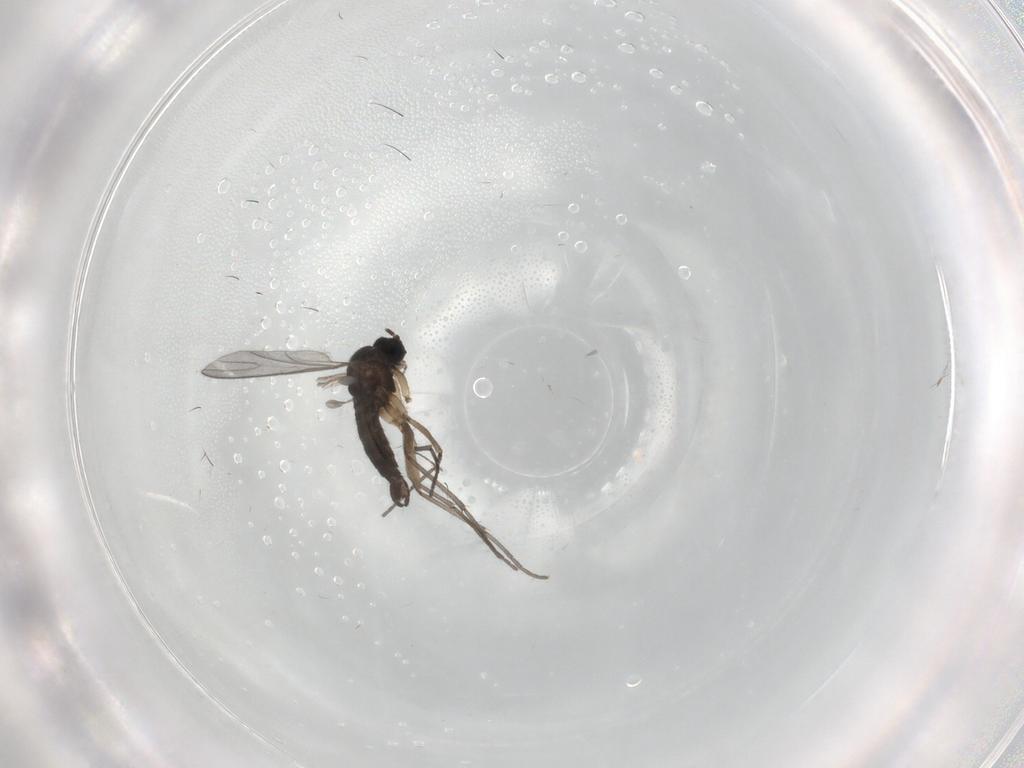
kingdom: Animalia
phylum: Arthropoda
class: Insecta
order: Diptera
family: Sciaridae
